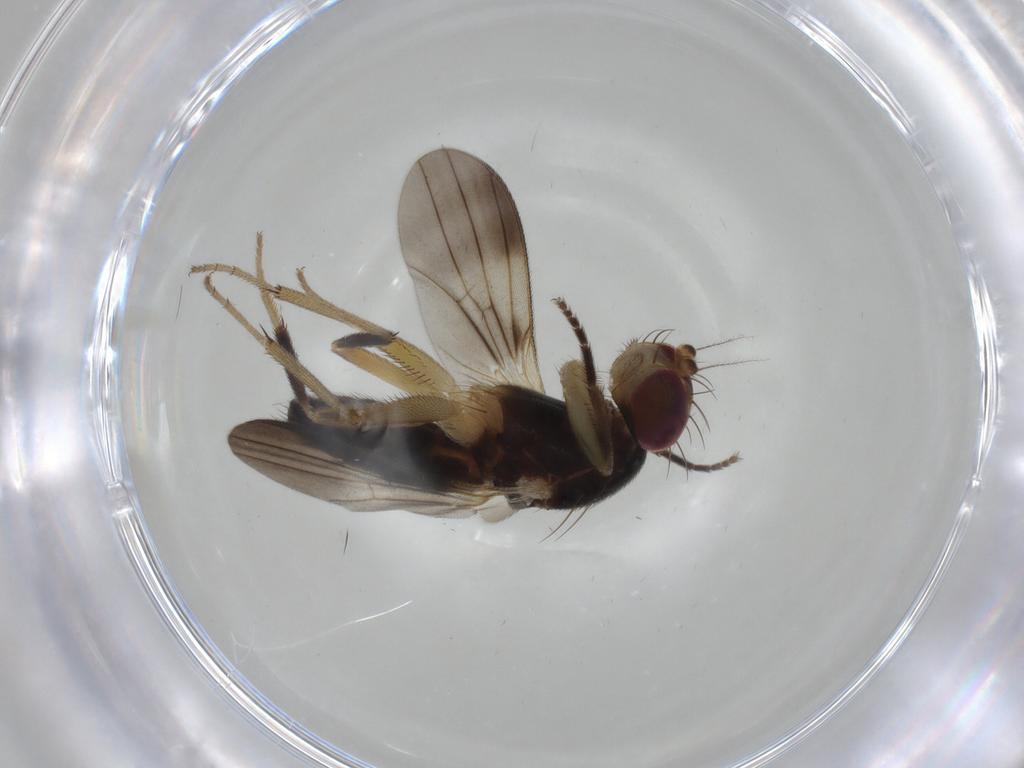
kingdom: Animalia
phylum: Arthropoda
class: Insecta
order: Diptera
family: Clusiidae
